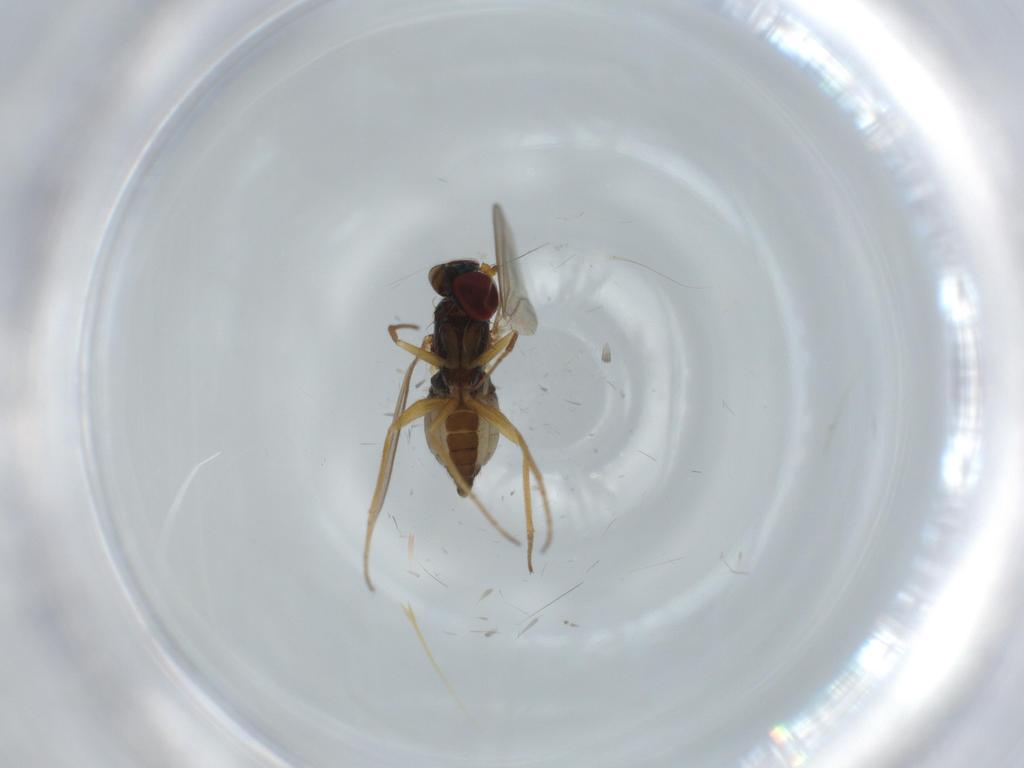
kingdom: Animalia
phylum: Arthropoda
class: Insecta
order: Diptera
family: Dolichopodidae
